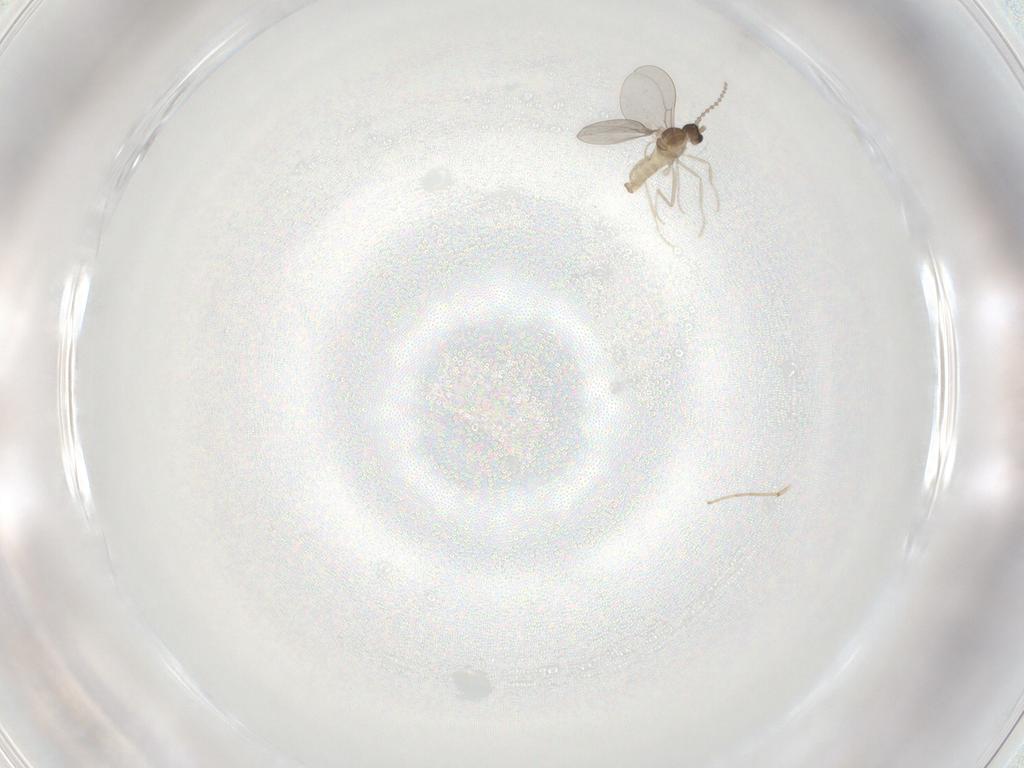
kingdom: Animalia
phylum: Arthropoda
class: Insecta
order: Diptera
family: Cecidomyiidae
